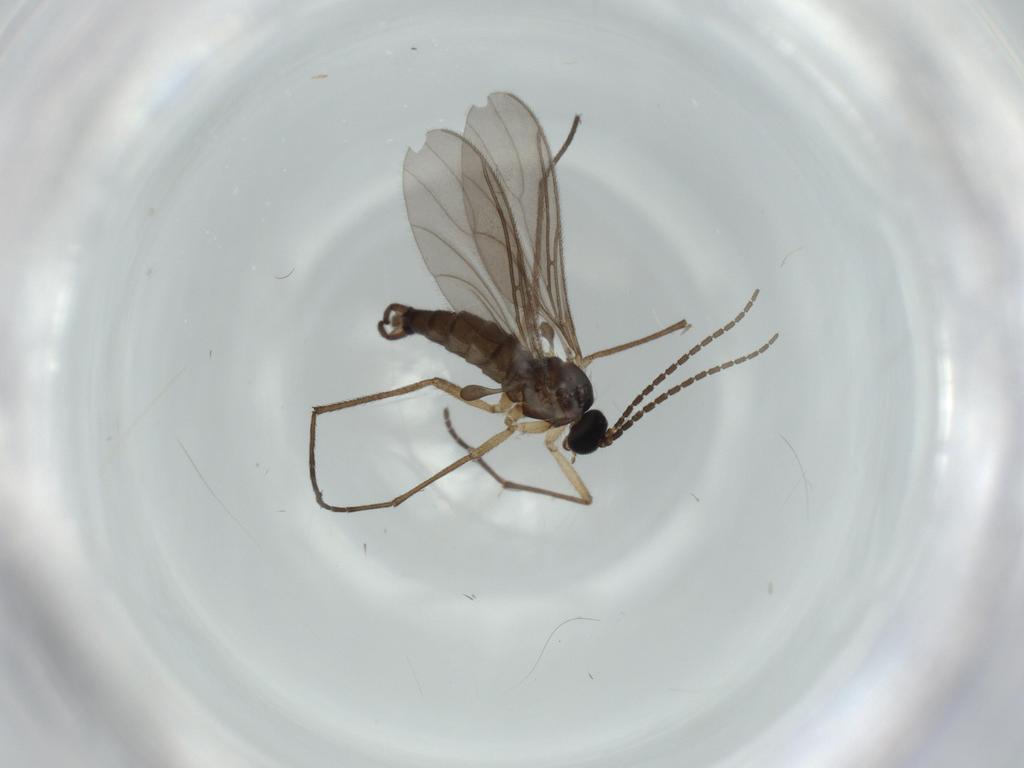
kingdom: Animalia
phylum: Arthropoda
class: Insecta
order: Diptera
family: Sciaridae
